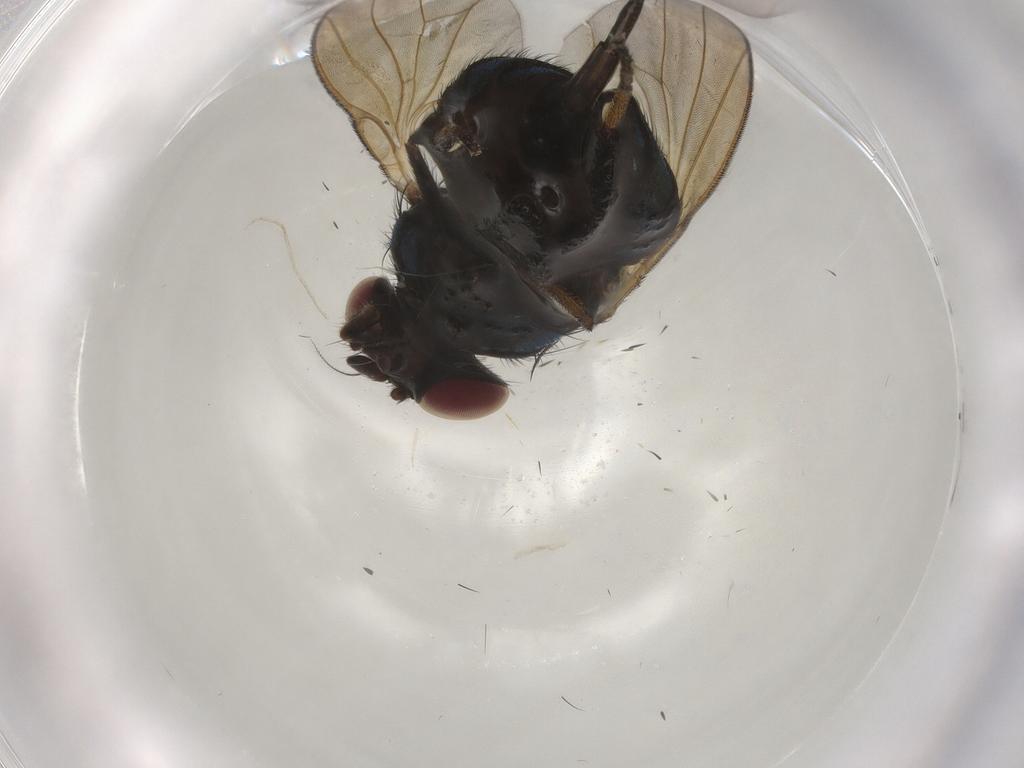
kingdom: Animalia
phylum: Arthropoda
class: Insecta
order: Diptera
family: Lonchaeidae
